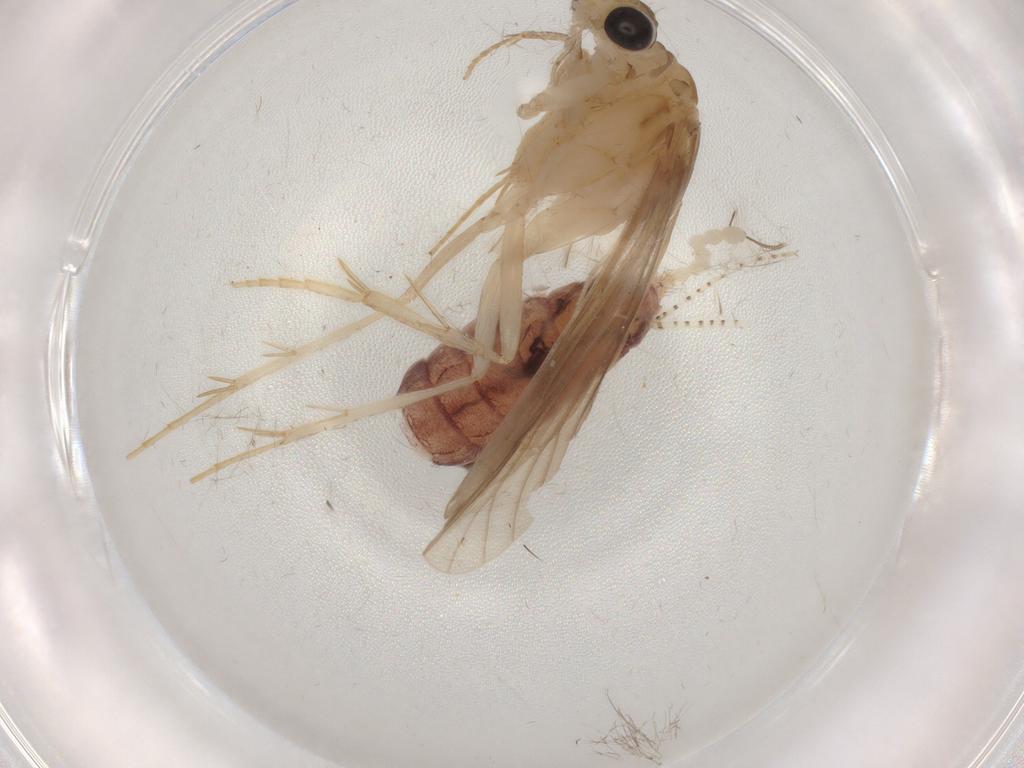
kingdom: Animalia
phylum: Arthropoda
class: Insecta
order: Trichoptera
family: Ecnomidae
